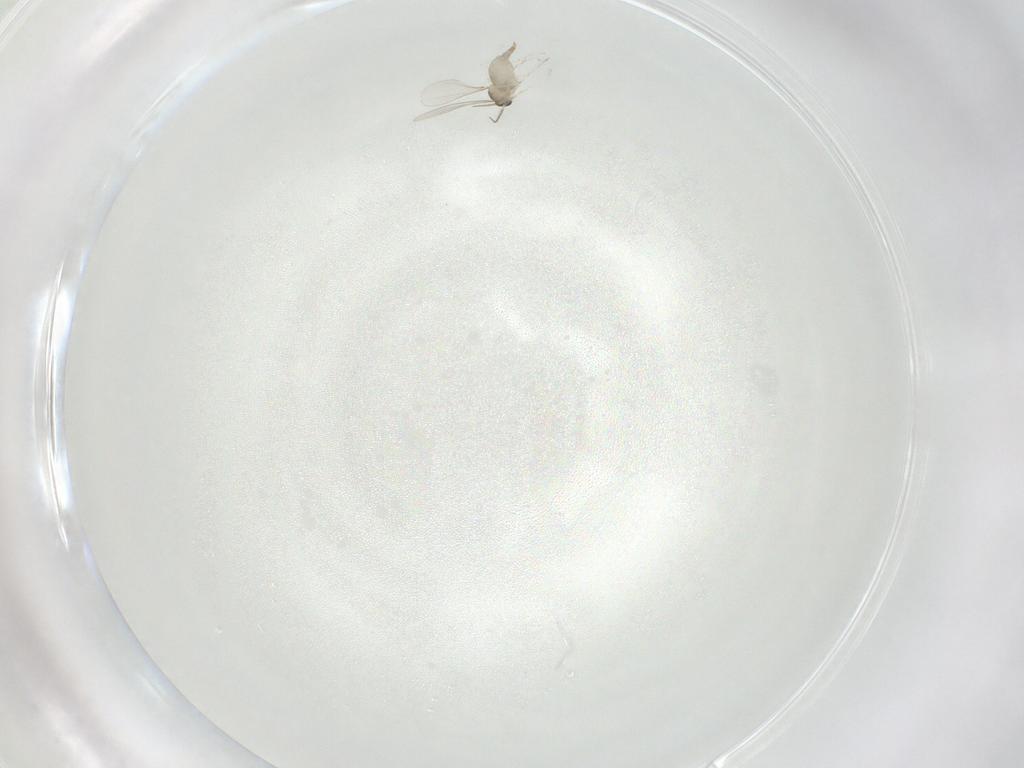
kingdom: Animalia
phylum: Arthropoda
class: Insecta
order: Diptera
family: Cecidomyiidae
